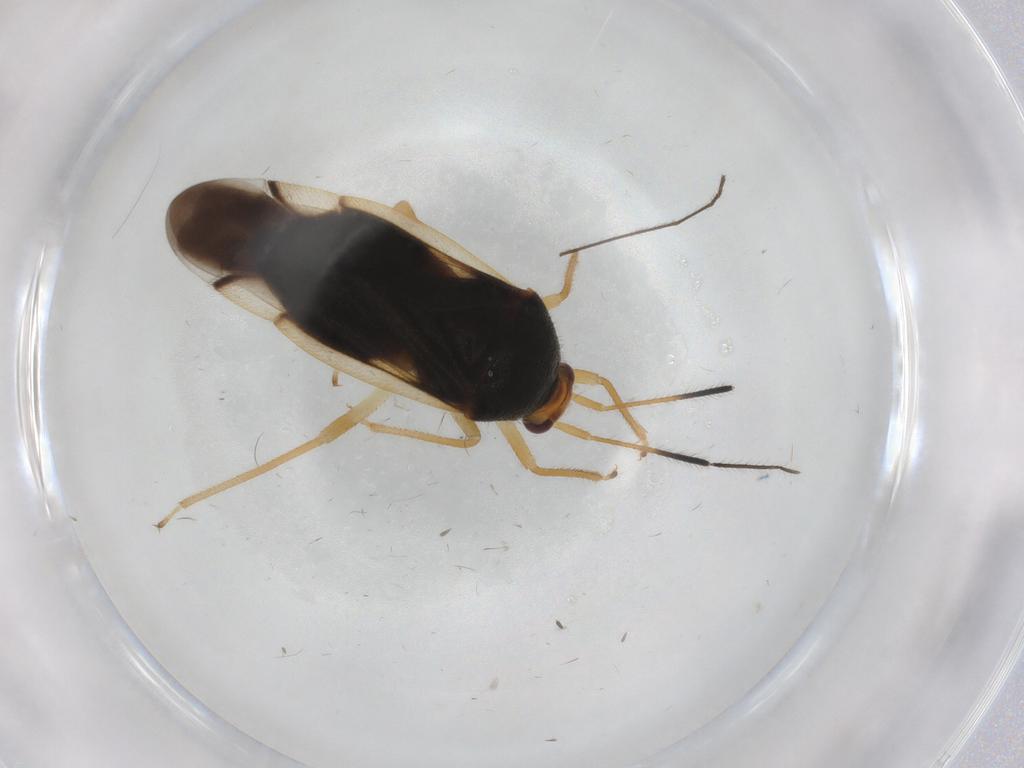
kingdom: Animalia
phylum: Arthropoda
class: Insecta
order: Hemiptera
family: Miridae
